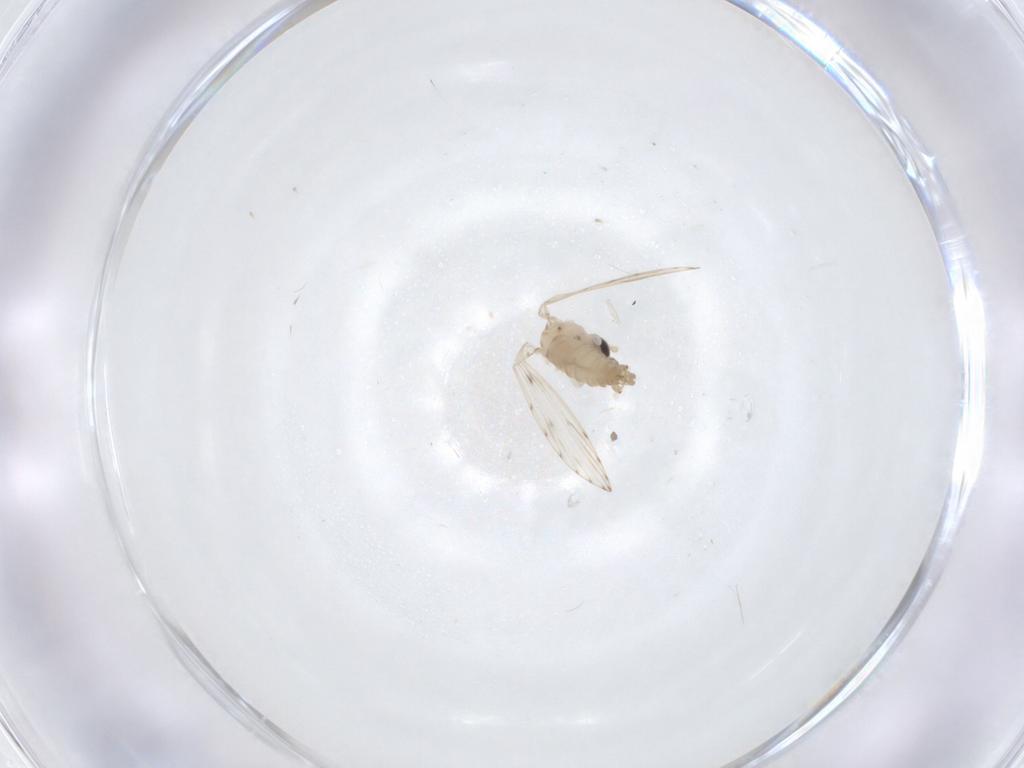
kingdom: Animalia
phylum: Arthropoda
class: Insecta
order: Diptera
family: Psychodidae
